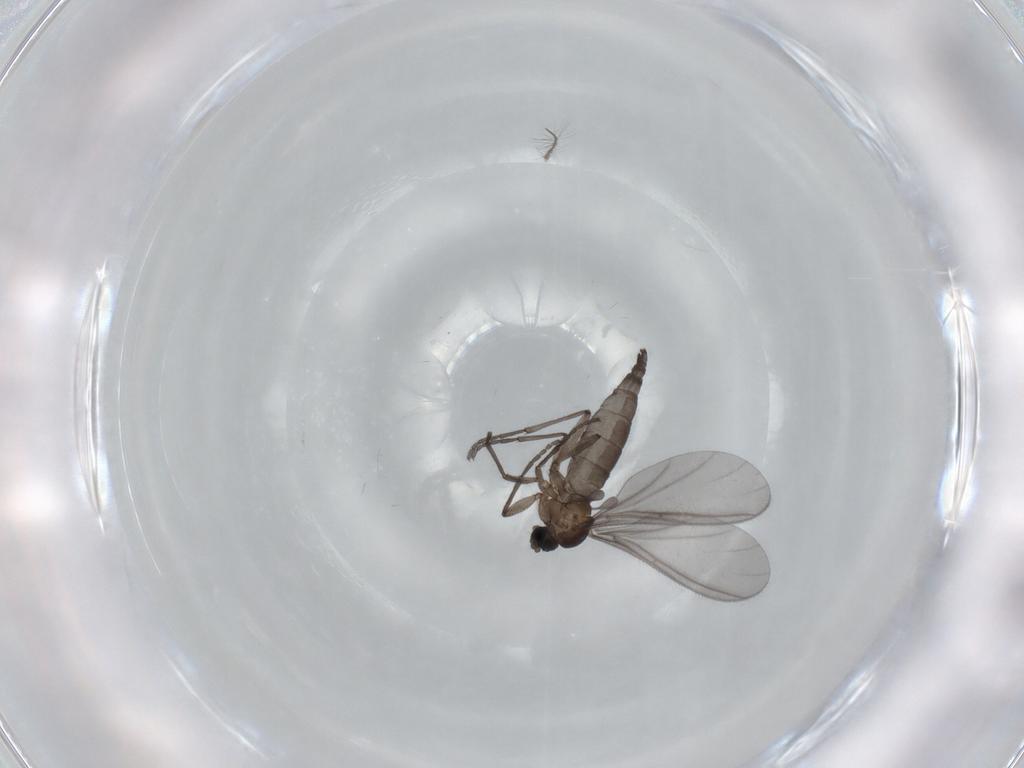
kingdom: Animalia
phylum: Arthropoda
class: Insecta
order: Diptera
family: Sciaridae
